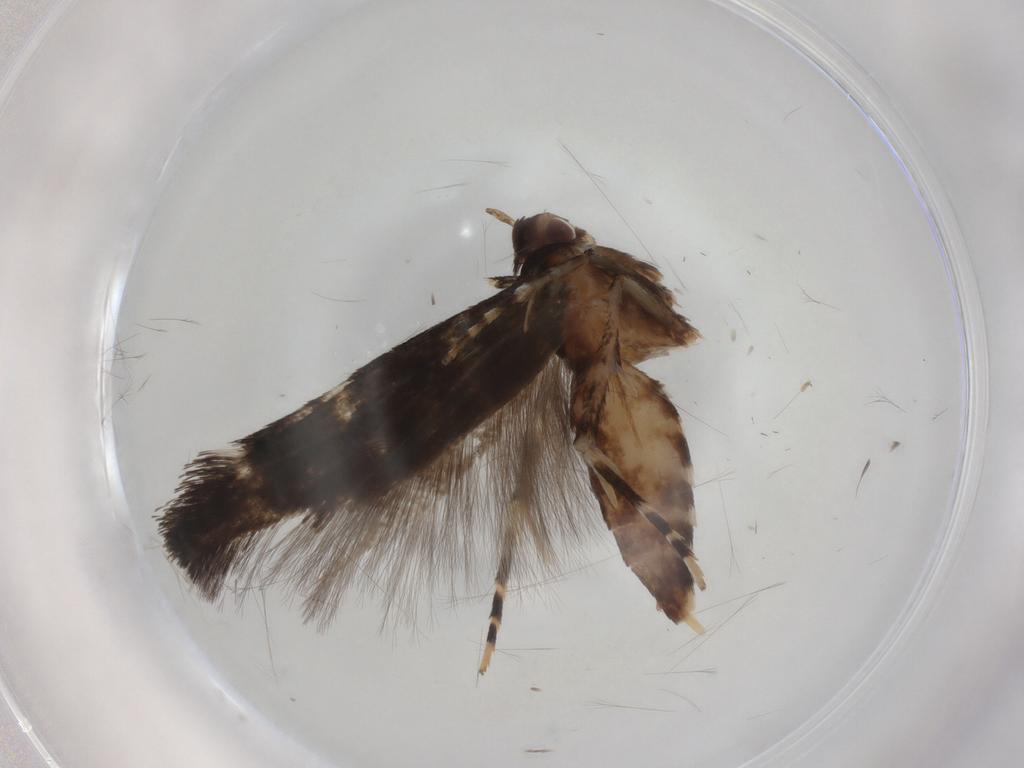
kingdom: Animalia
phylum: Arthropoda
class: Insecta
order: Lepidoptera
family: Cosmopterigidae
